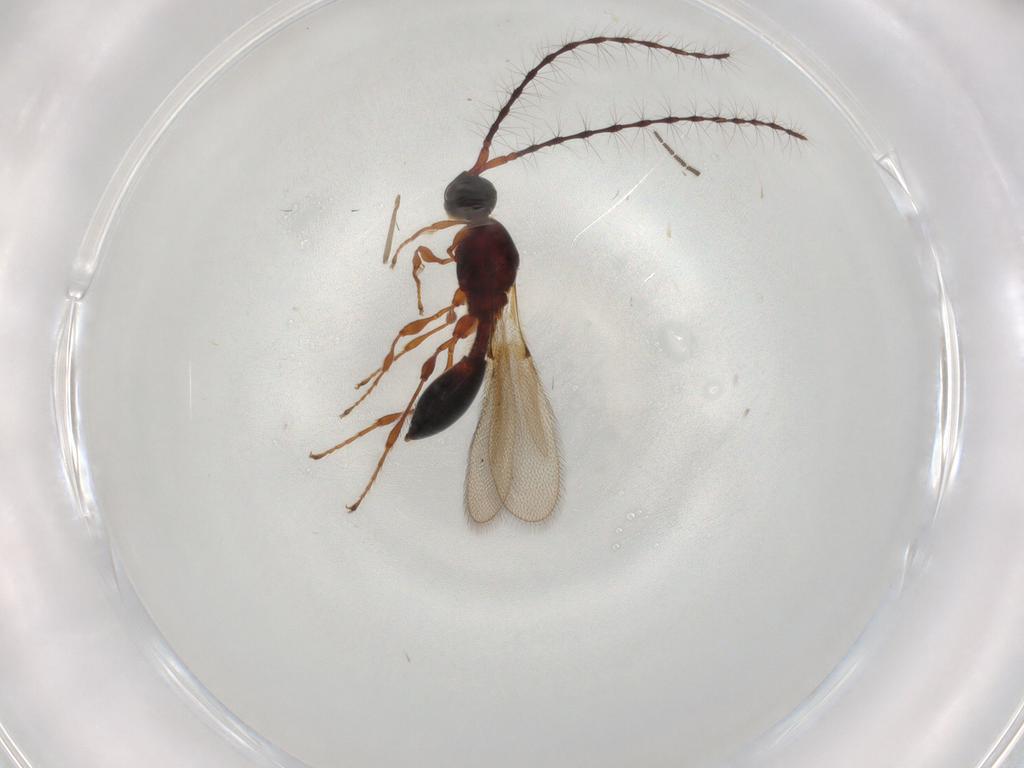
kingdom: Animalia
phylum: Arthropoda
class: Insecta
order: Hymenoptera
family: Diapriidae
